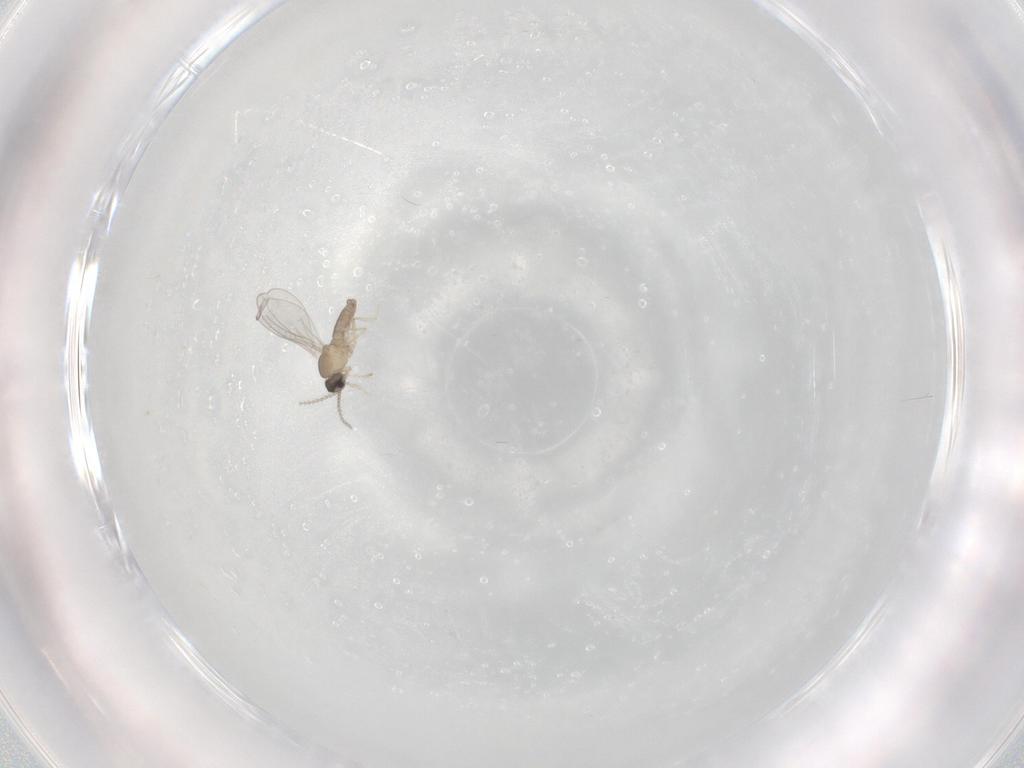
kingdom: Animalia
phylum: Arthropoda
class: Insecta
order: Diptera
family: Cecidomyiidae
